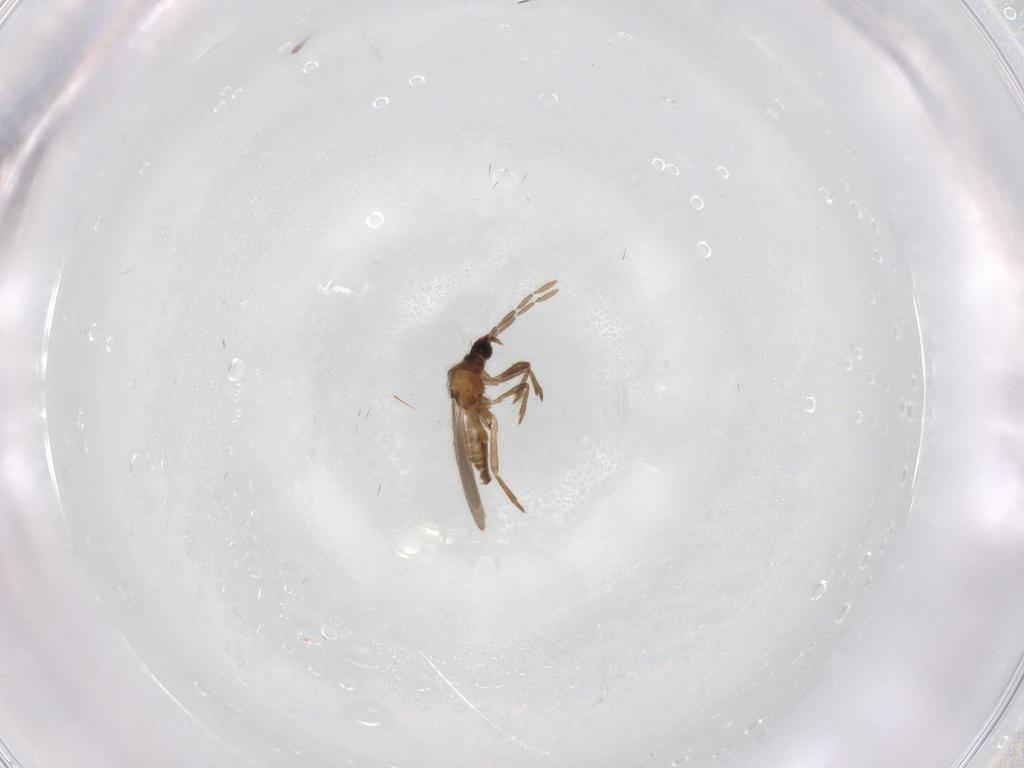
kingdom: Animalia
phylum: Arthropoda
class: Insecta
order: Hemiptera
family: Enicocephalidae
